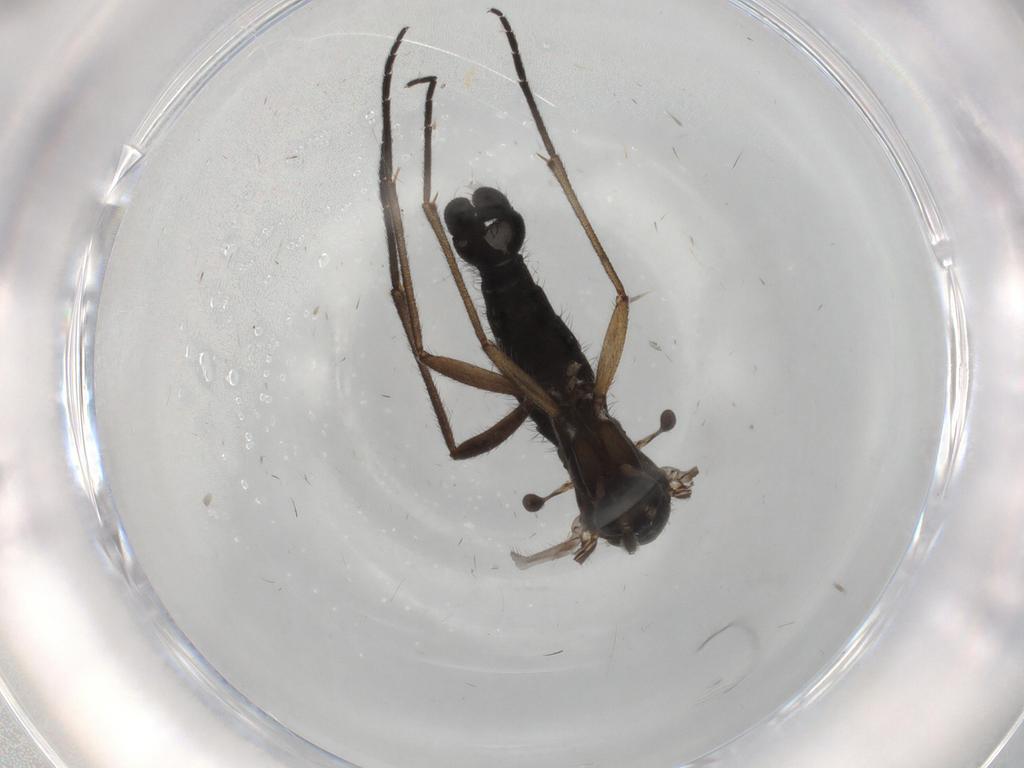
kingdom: Animalia
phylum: Arthropoda
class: Insecta
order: Diptera
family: Sciaridae
